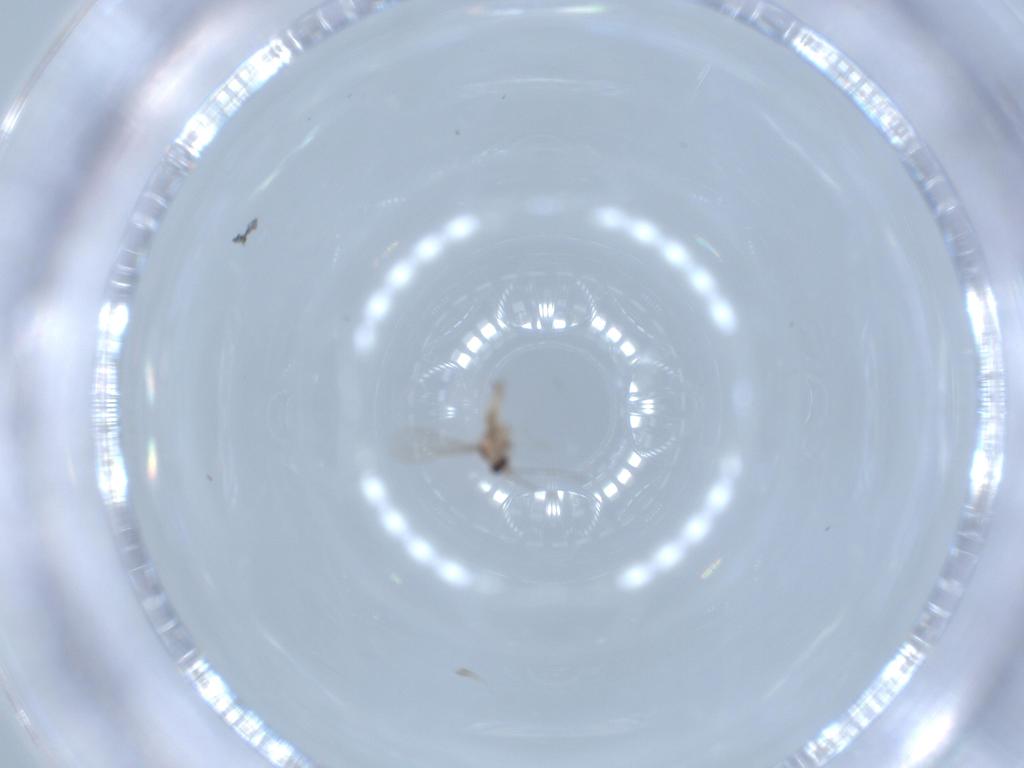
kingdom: Animalia
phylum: Arthropoda
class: Insecta
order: Diptera
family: Cecidomyiidae
